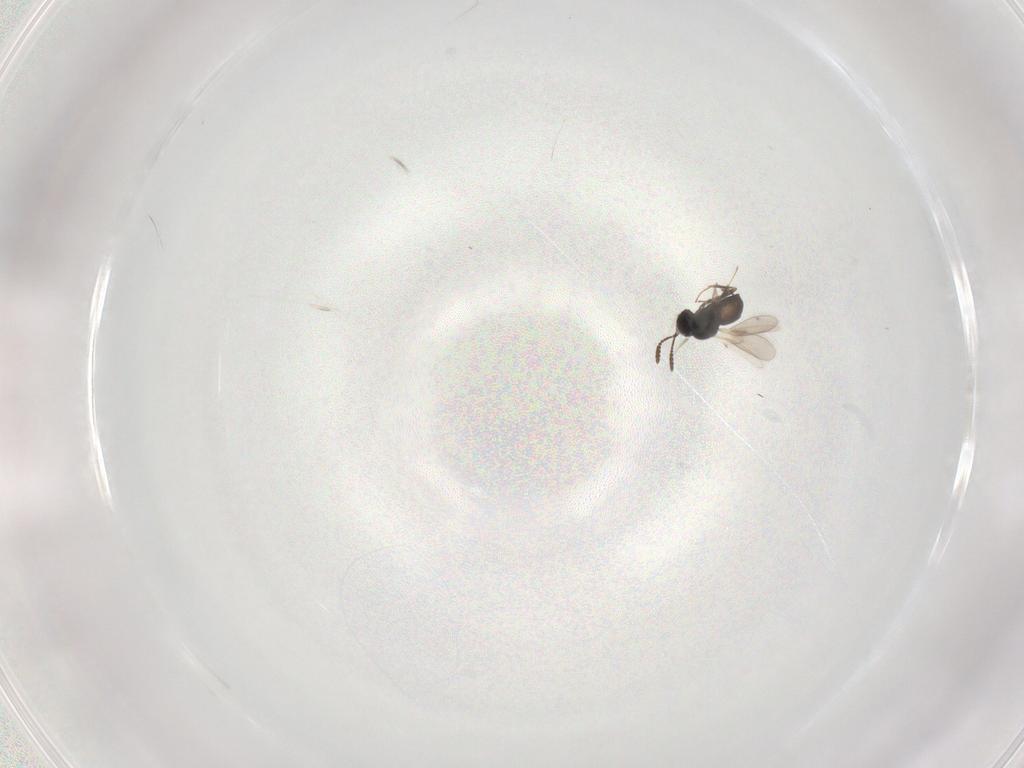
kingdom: Animalia
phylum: Arthropoda
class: Insecta
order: Hymenoptera
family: Scelionidae
